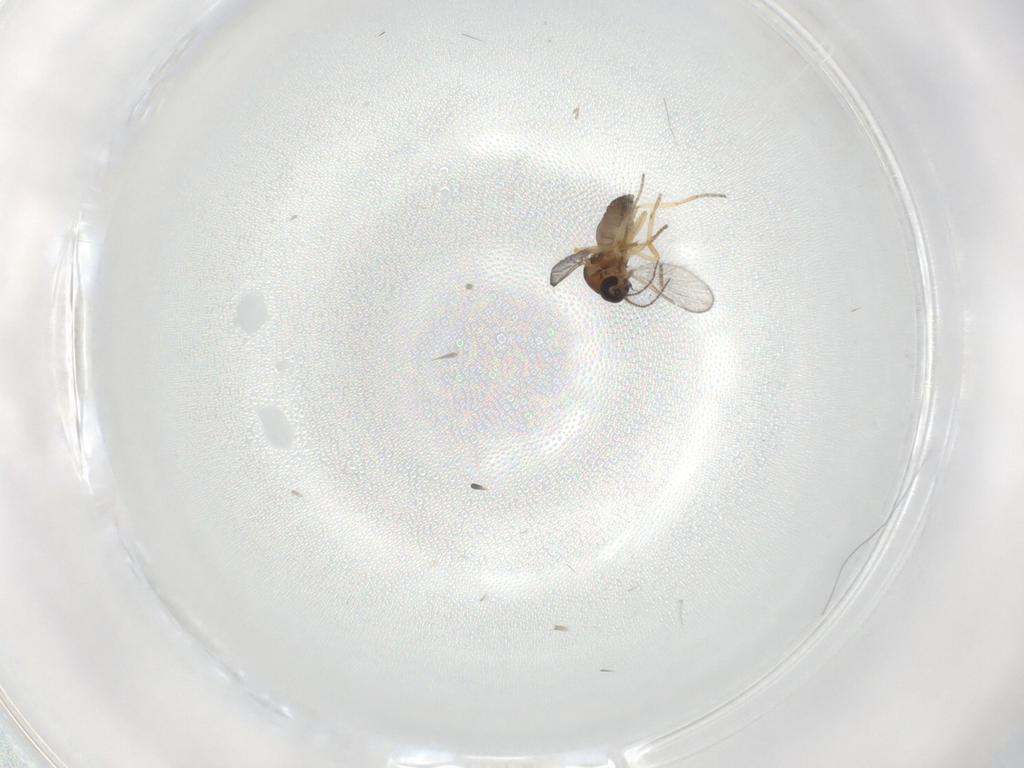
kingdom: Animalia
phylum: Arthropoda
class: Insecta
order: Diptera
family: Ceratopogonidae
